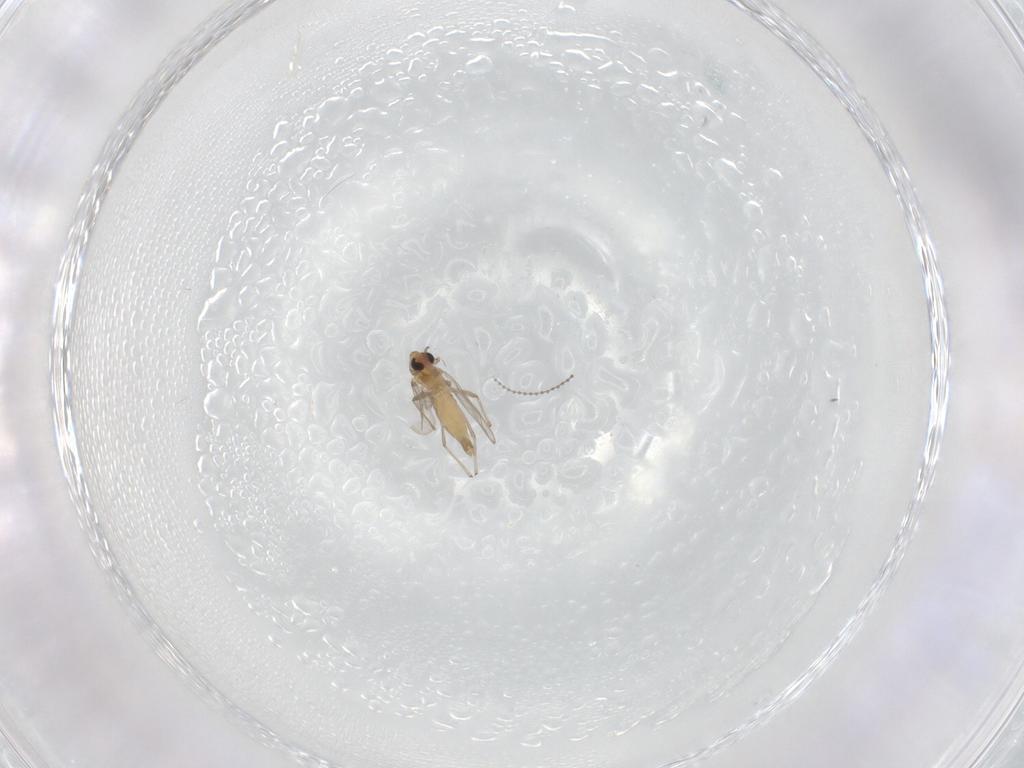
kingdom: Animalia
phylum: Arthropoda
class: Insecta
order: Diptera
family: Chironomidae
